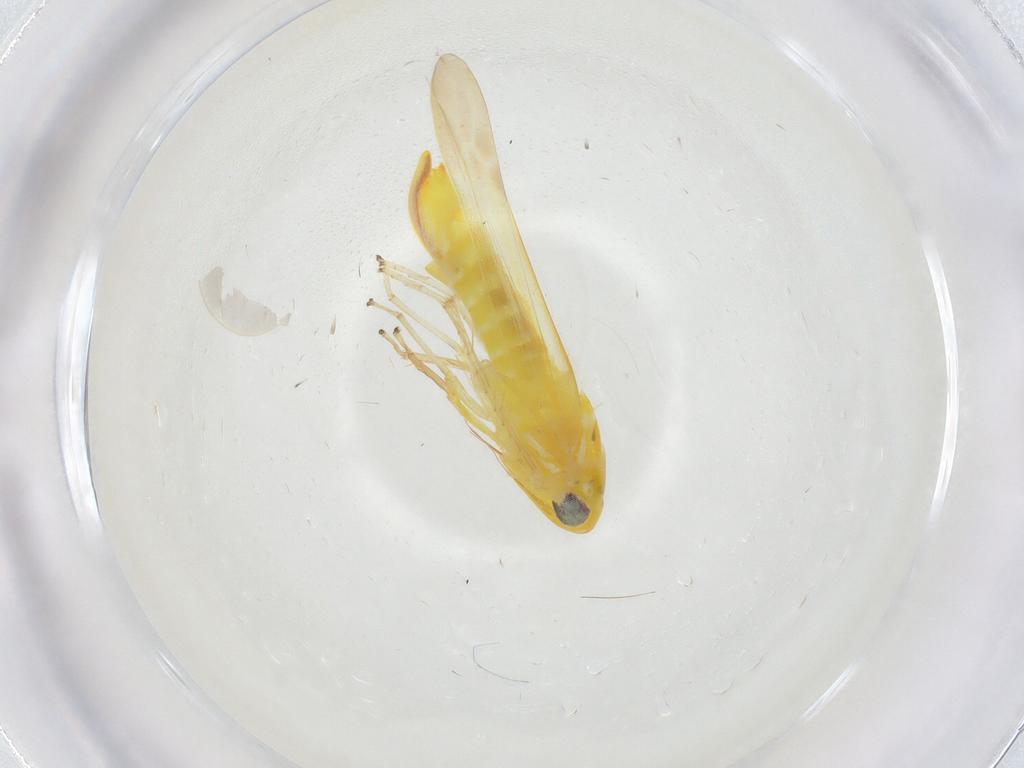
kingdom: Animalia
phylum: Arthropoda
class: Insecta
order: Hemiptera
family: Cicadellidae
